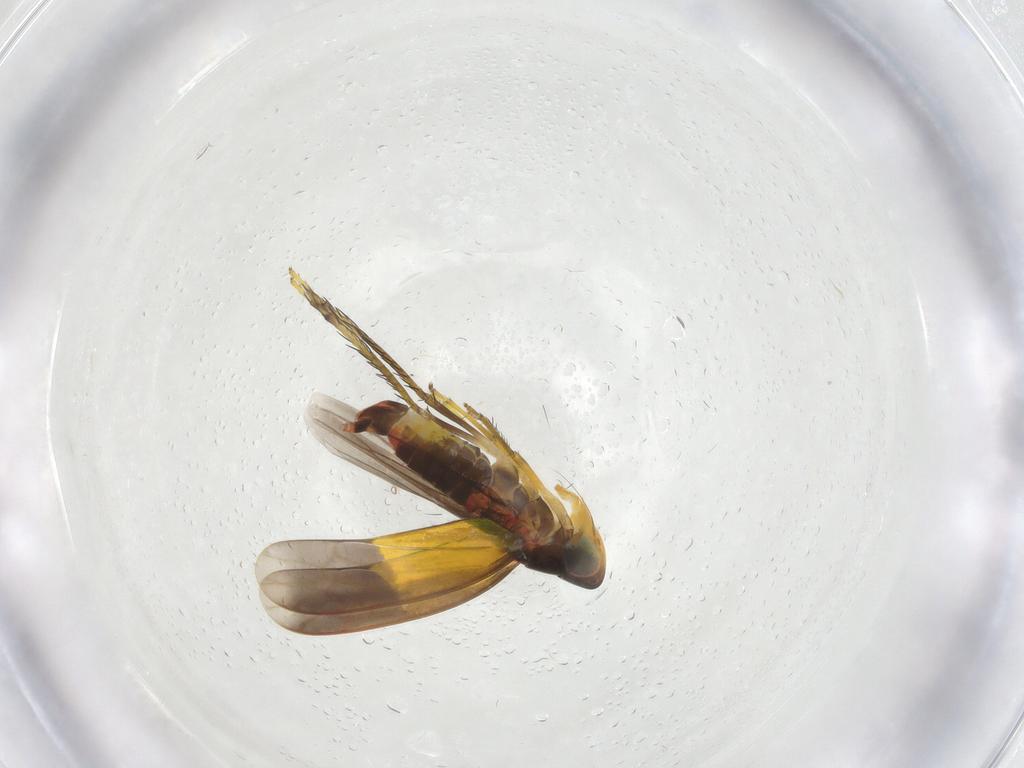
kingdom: Animalia
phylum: Arthropoda
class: Insecta
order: Hemiptera
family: Cicadellidae
